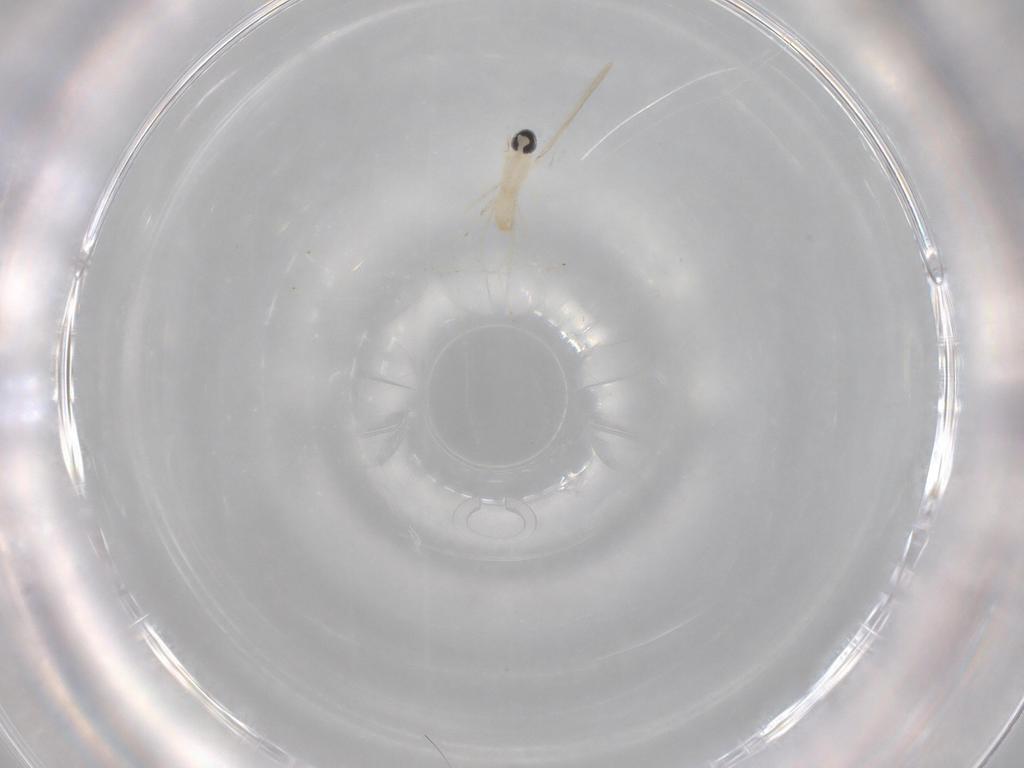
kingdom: Animalia
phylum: Arthropoda
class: Insecta
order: Diptera
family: Cecidomyiidae
